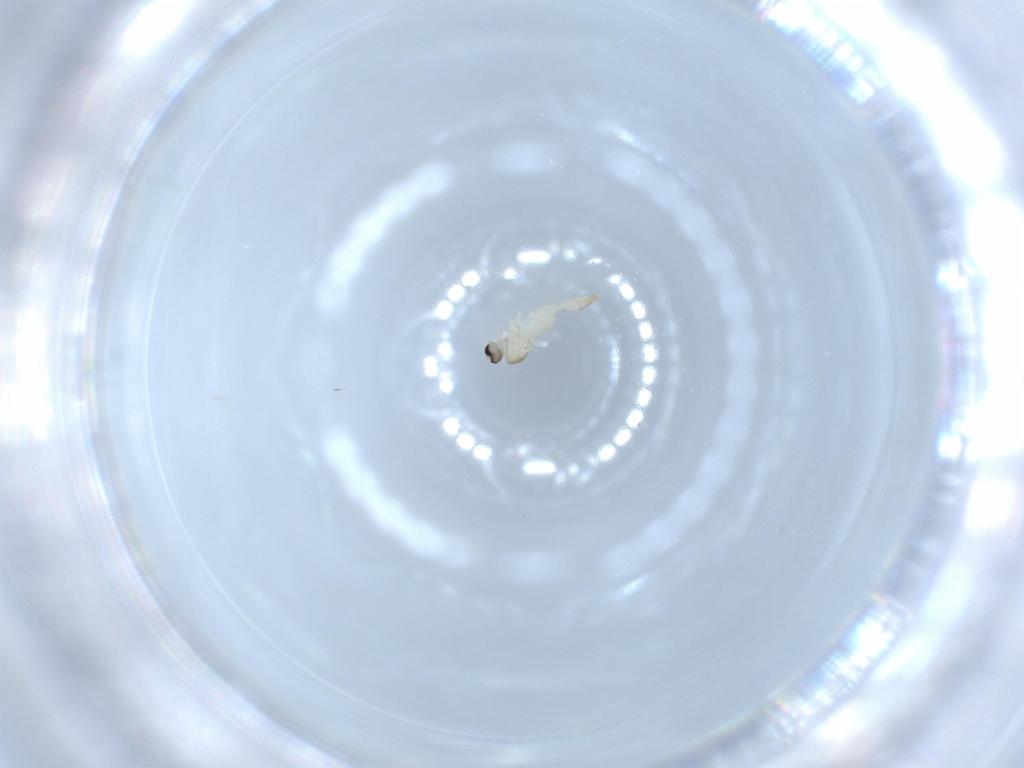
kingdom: Animalia
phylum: Arthropoda
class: Insecta
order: Diptera
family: Cecidomyiidae
